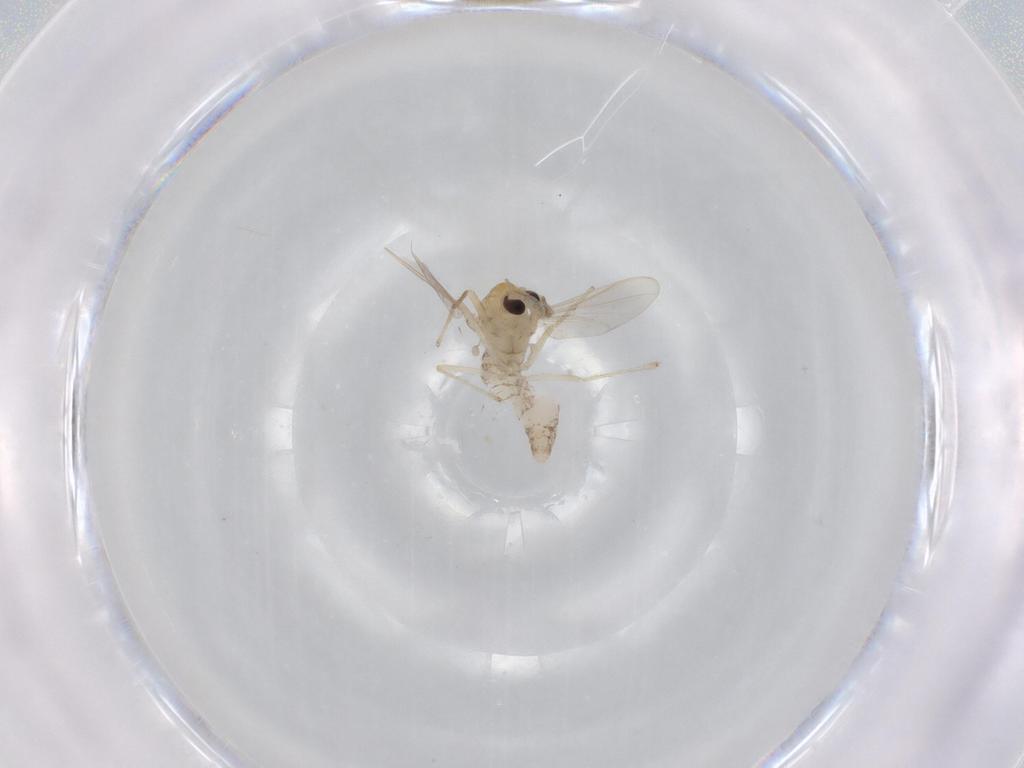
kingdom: Animalia
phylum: Arthropoda
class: Insecta
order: Diptera
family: Chironomidae
